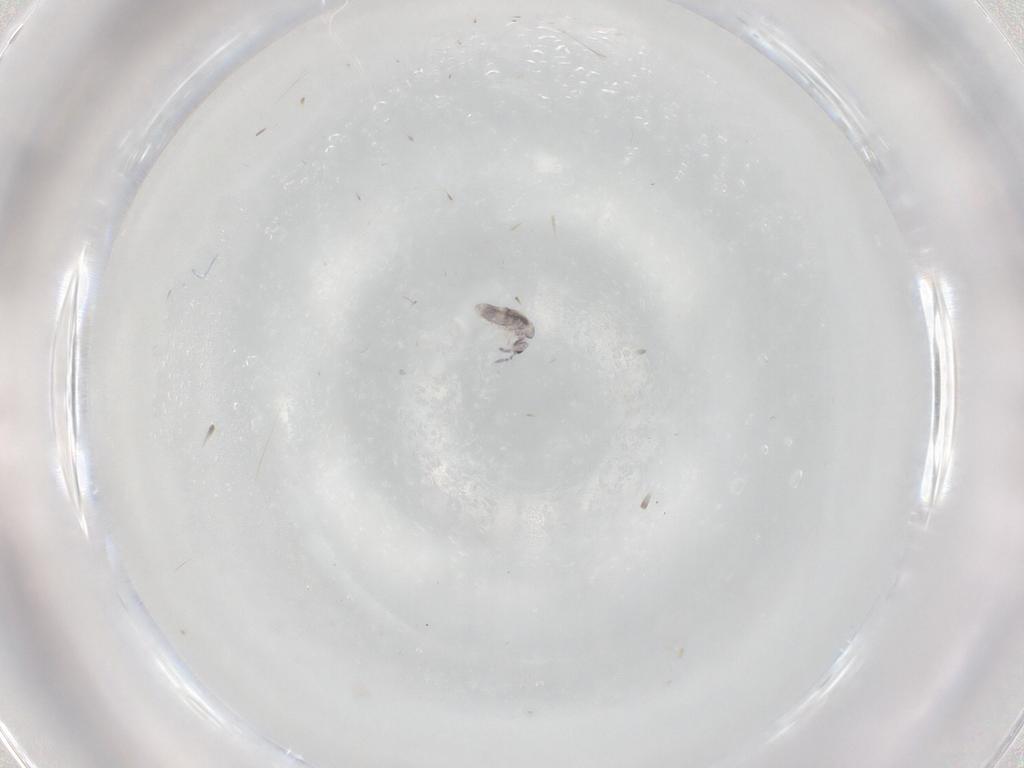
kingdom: Animalia
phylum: Arthropoda
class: Collembola
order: Entomobryomorpha
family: Entomobryidae
